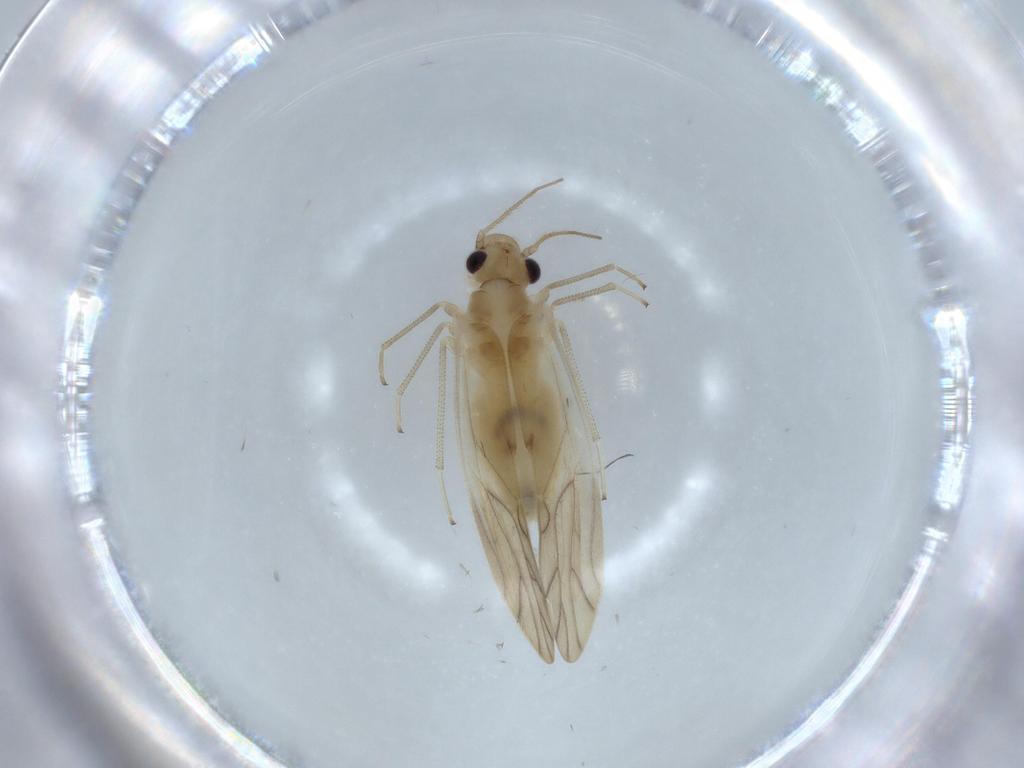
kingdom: Animalia
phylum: Arthropoda
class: Insecta
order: Psocodea
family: Caeciliusidae
